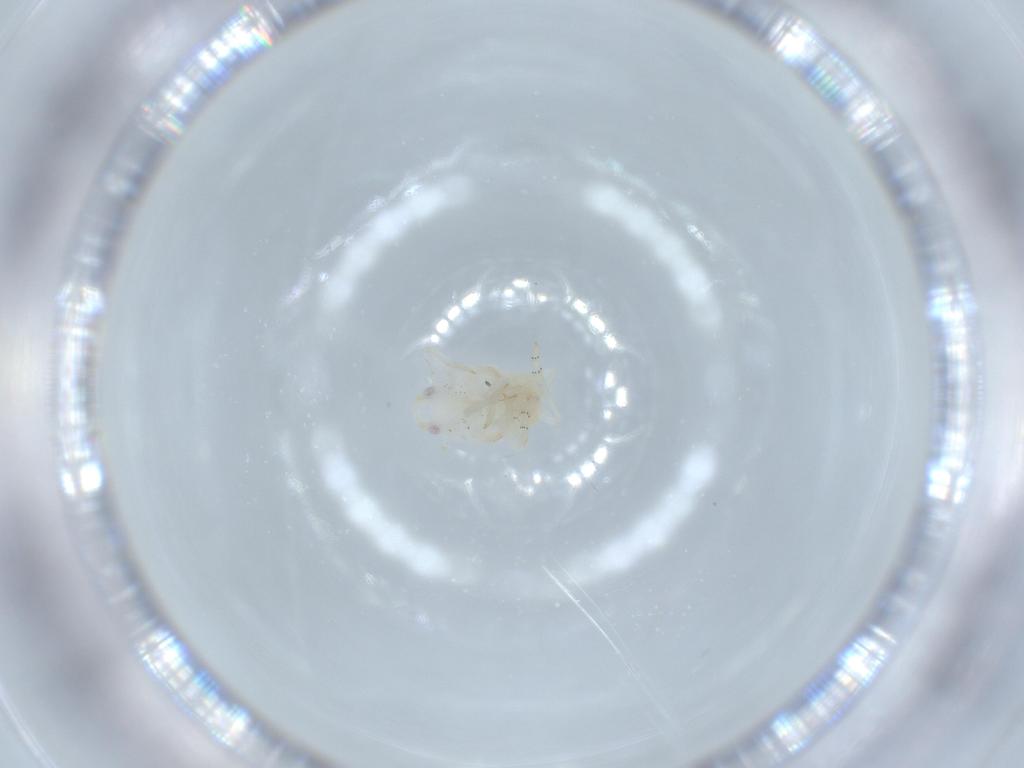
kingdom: Animalia
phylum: Arthropoda
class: Insecta
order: Hemiptera
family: Flatidae
